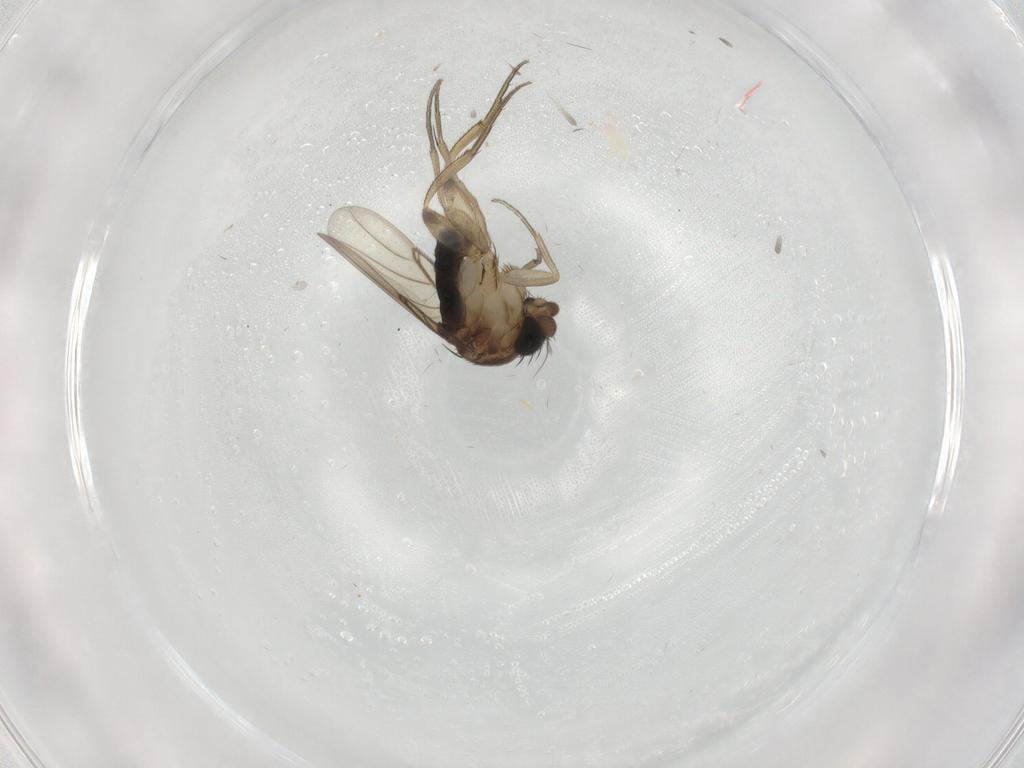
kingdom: Animalia
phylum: Arthropoda
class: Insecta
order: Diptera
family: Phoridae
